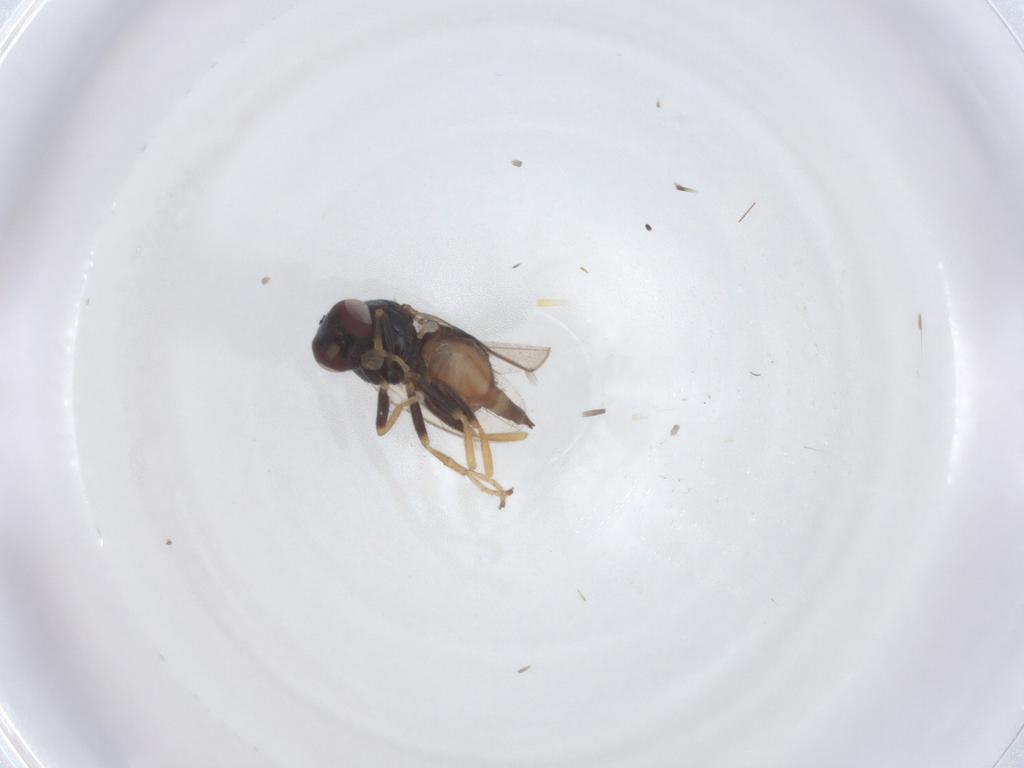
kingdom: Animalia
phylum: Arthropoda
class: Insecta
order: Diptera
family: Chloropidae
